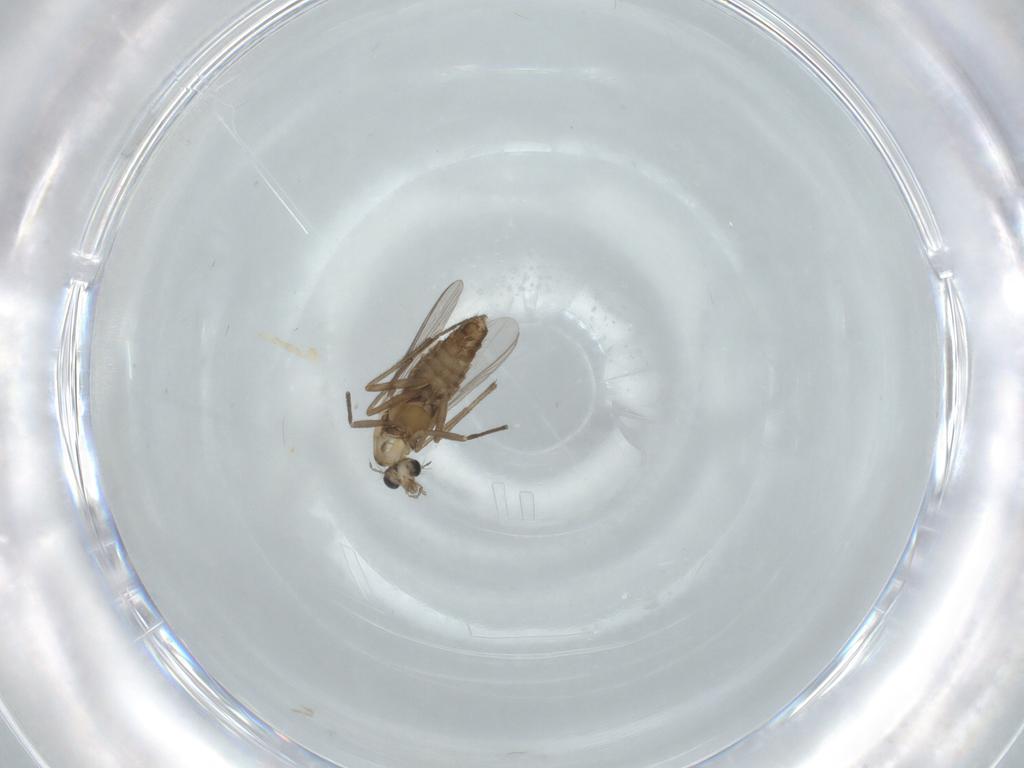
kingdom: Animalia
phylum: Arthropoda
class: Insecta
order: Diptera
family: Chironomidae
